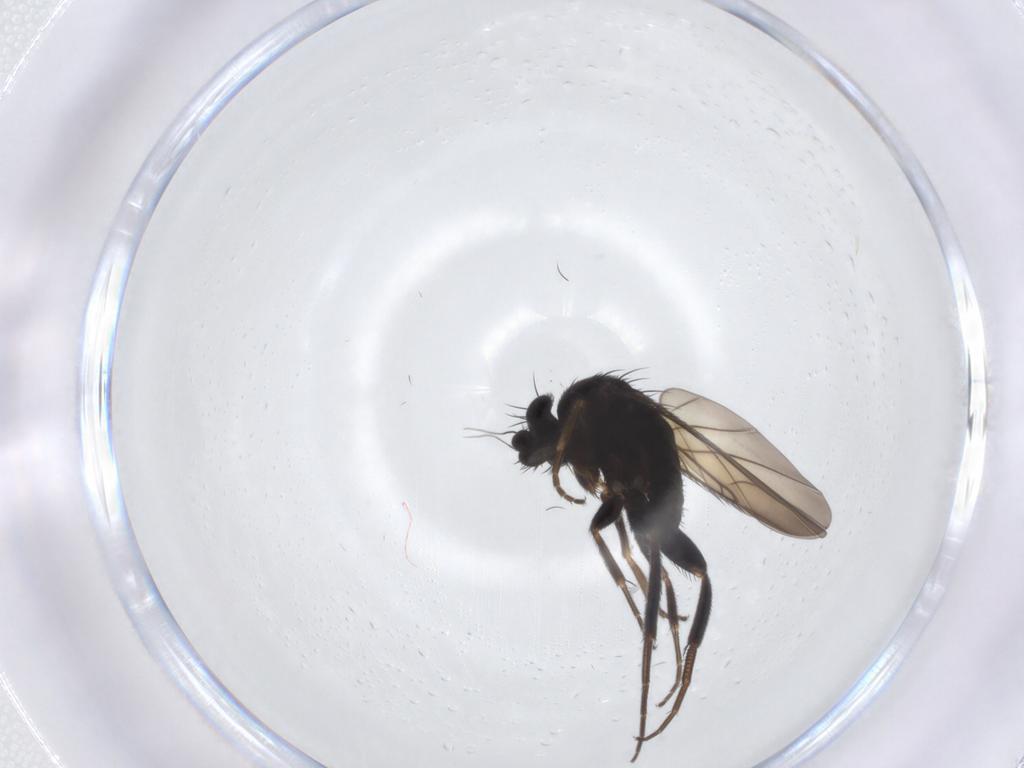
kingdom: Animalia
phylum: Arthropoda
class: Insecta
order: Diptera
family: Phoridae
